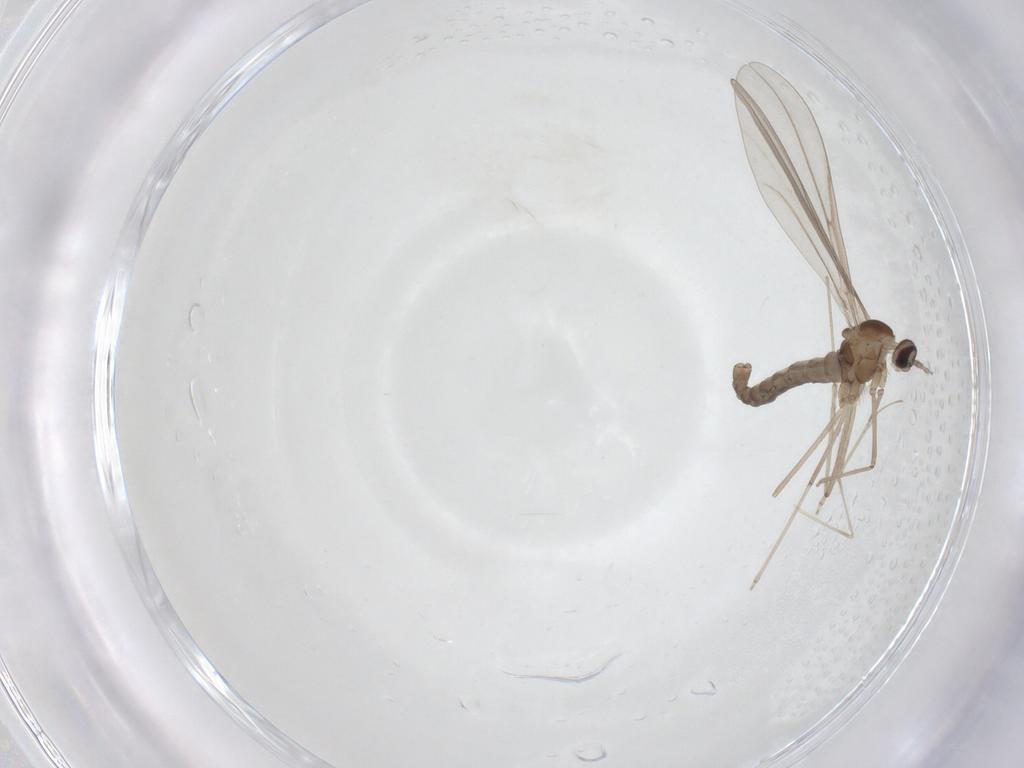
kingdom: Animalia
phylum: Arthropoda
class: Insecta
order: Diptera
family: Cecidomyiidae
